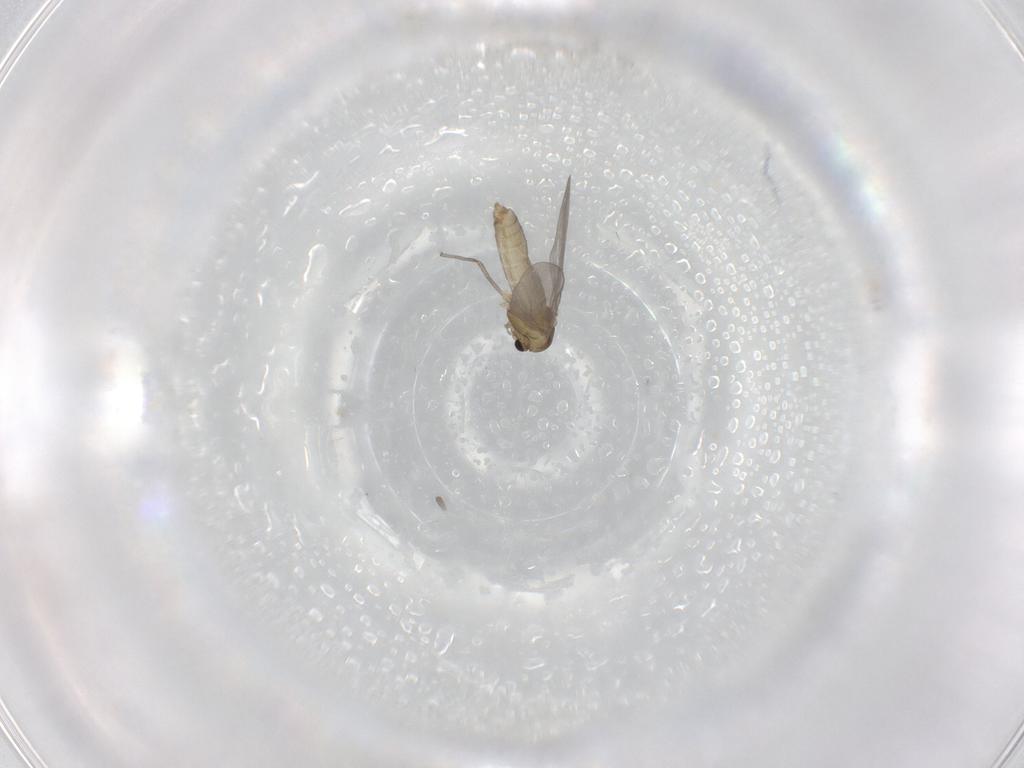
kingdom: Animalia
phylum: Arthropoda
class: Insecta
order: Diptera
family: Chironomidae
